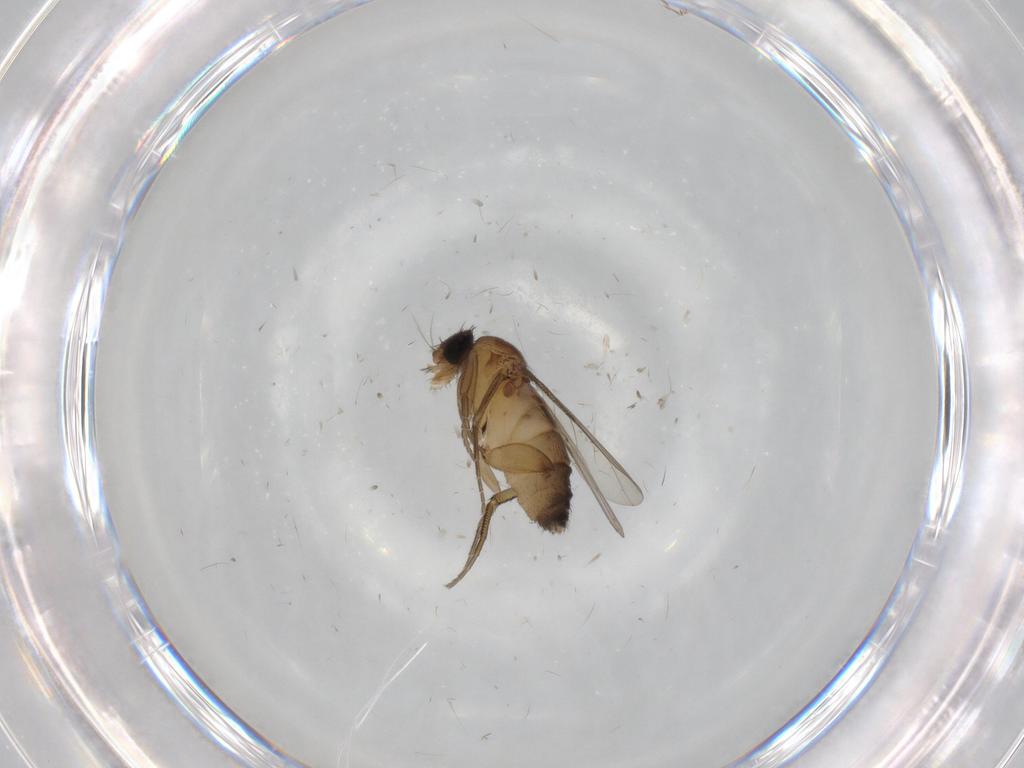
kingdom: Animalia
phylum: Arthropoda
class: Insecta
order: Diptera
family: Phoridae
